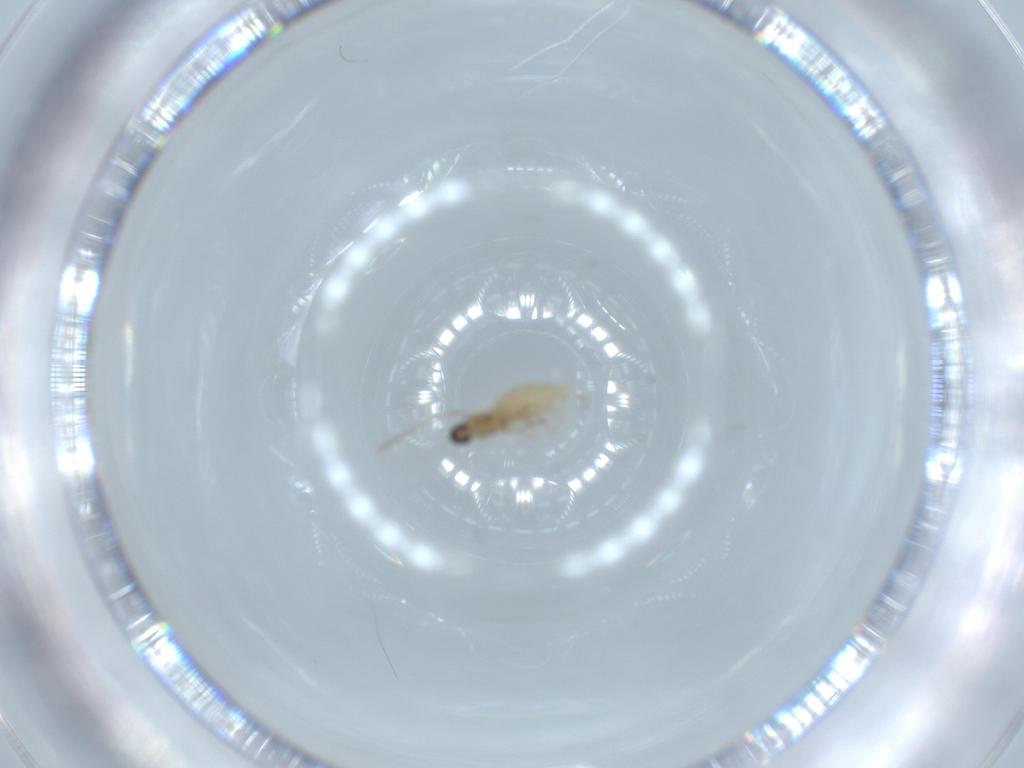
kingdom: Animalia
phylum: Arthropoda
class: Insecta
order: Diptera
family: Cecidomyiidae
